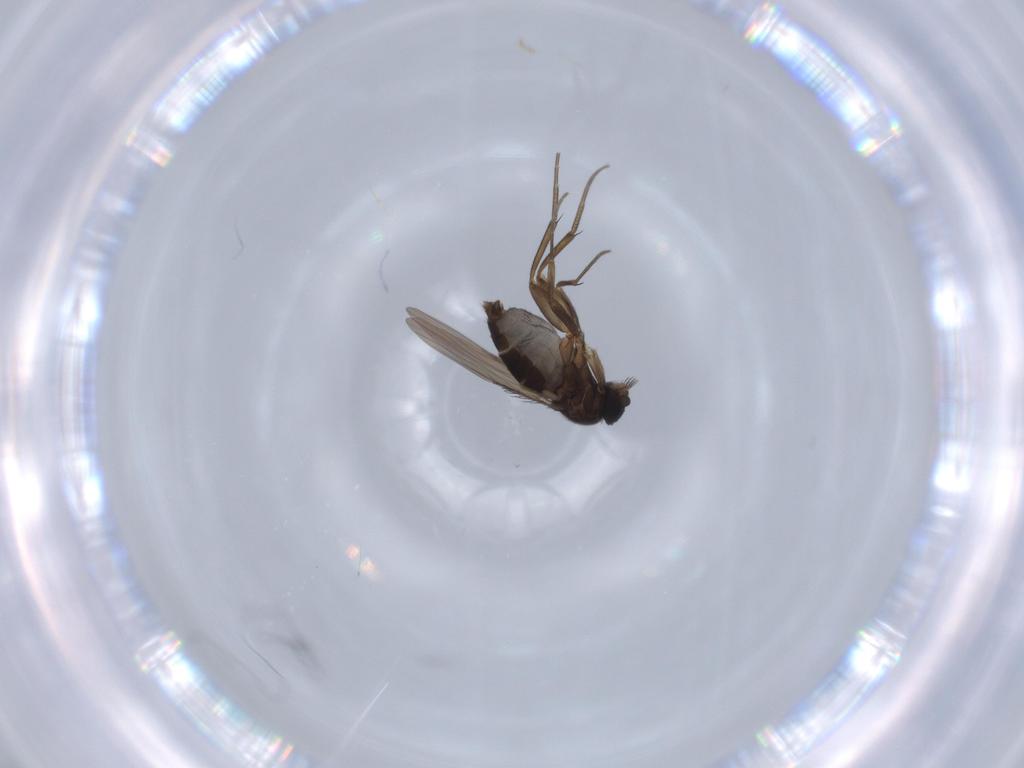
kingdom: Animalia
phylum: Arthropoda
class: Insecta
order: Diptera
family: Phoridae
